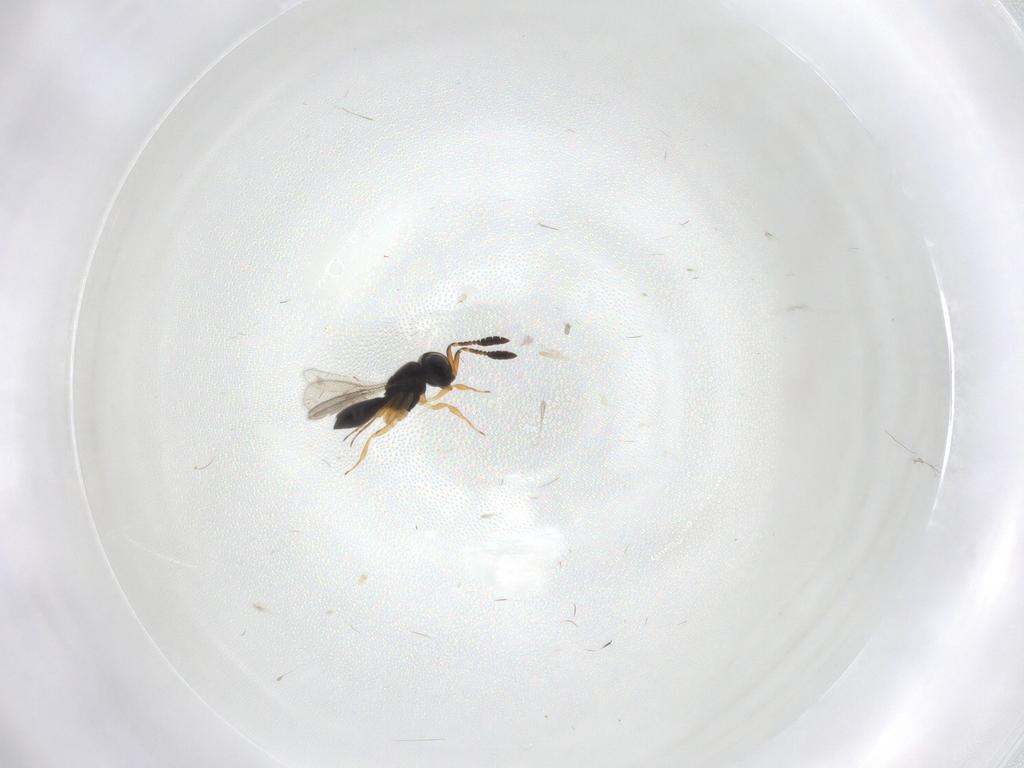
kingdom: Animalia
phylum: Arthropoda
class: Insecta
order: Hymenoptera
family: Scelionidae
